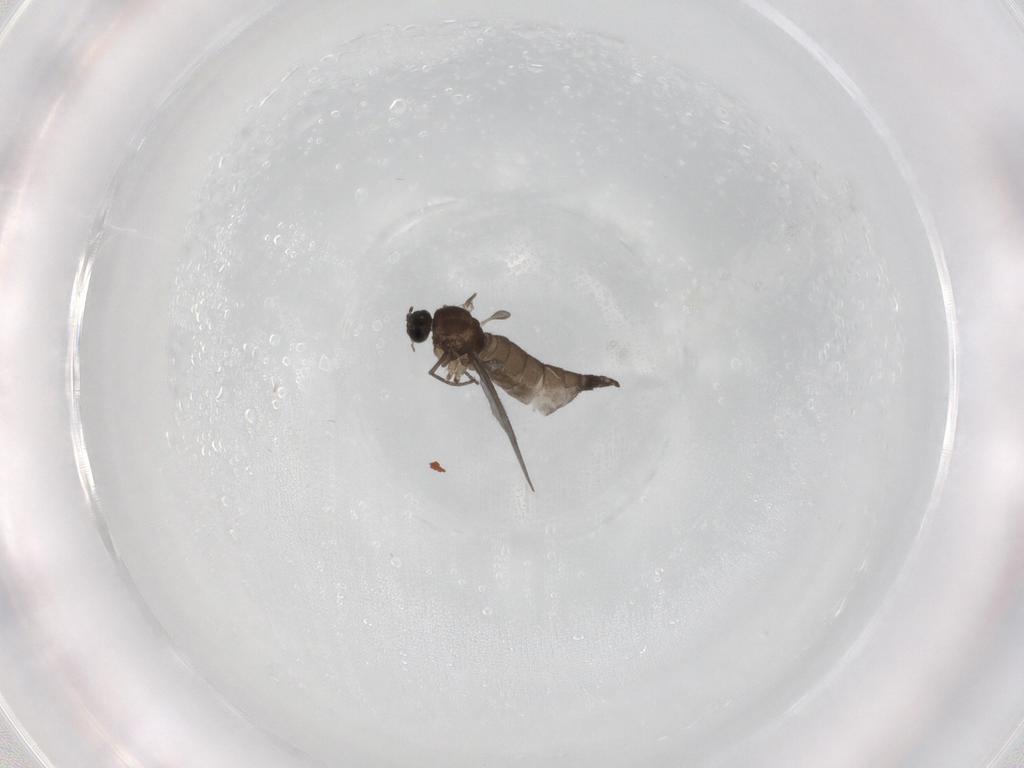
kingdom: Animalia
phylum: Arthropoda
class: Insecta
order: Diptera
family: Sciaridae
